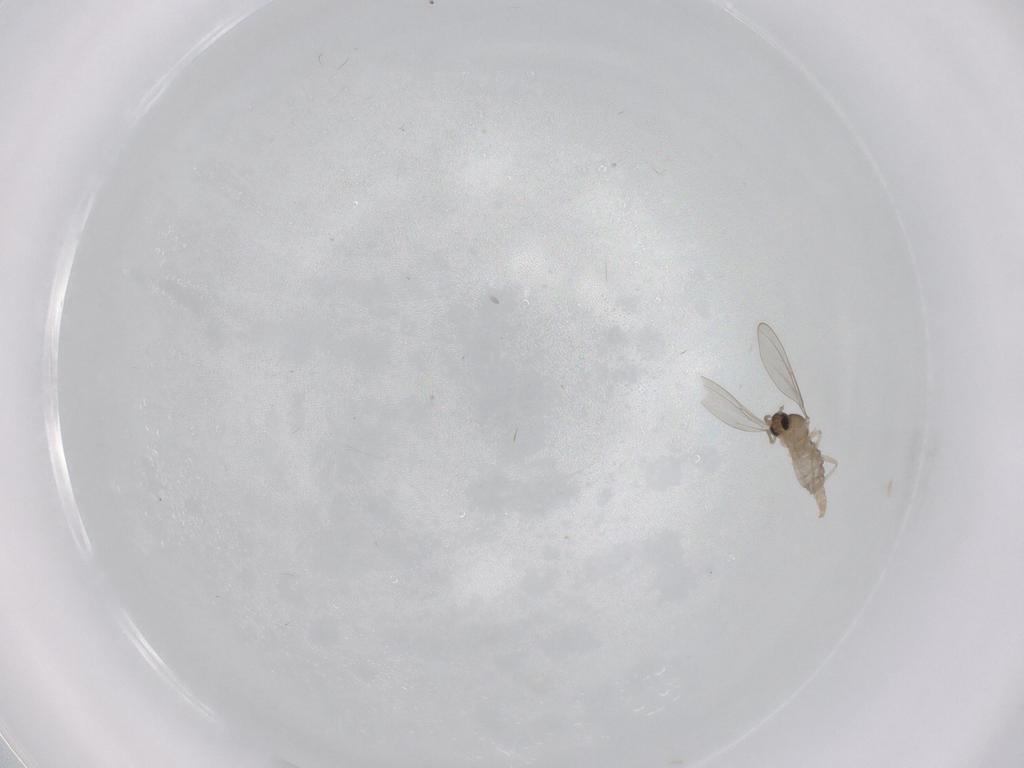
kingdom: Animalia
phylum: Arthropoda
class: Insecta
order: Diptera
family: Cecidomyiidae
